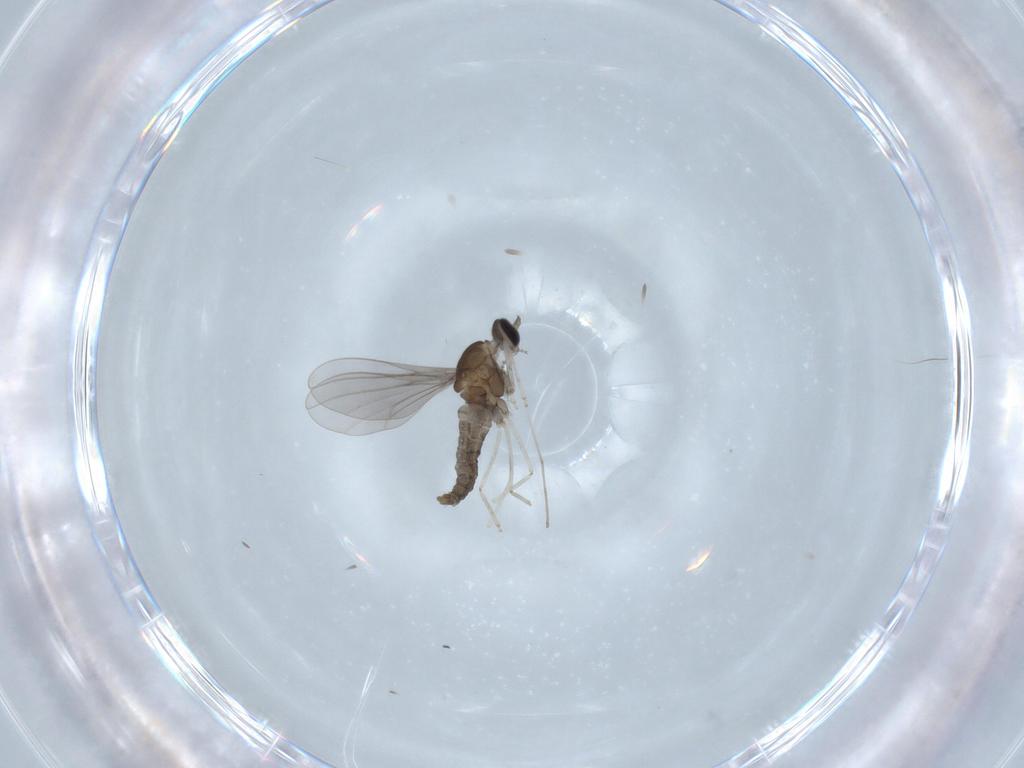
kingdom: Animalia
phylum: Arthropoda
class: Insecta
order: Diptera
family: Cecidomyiidae
